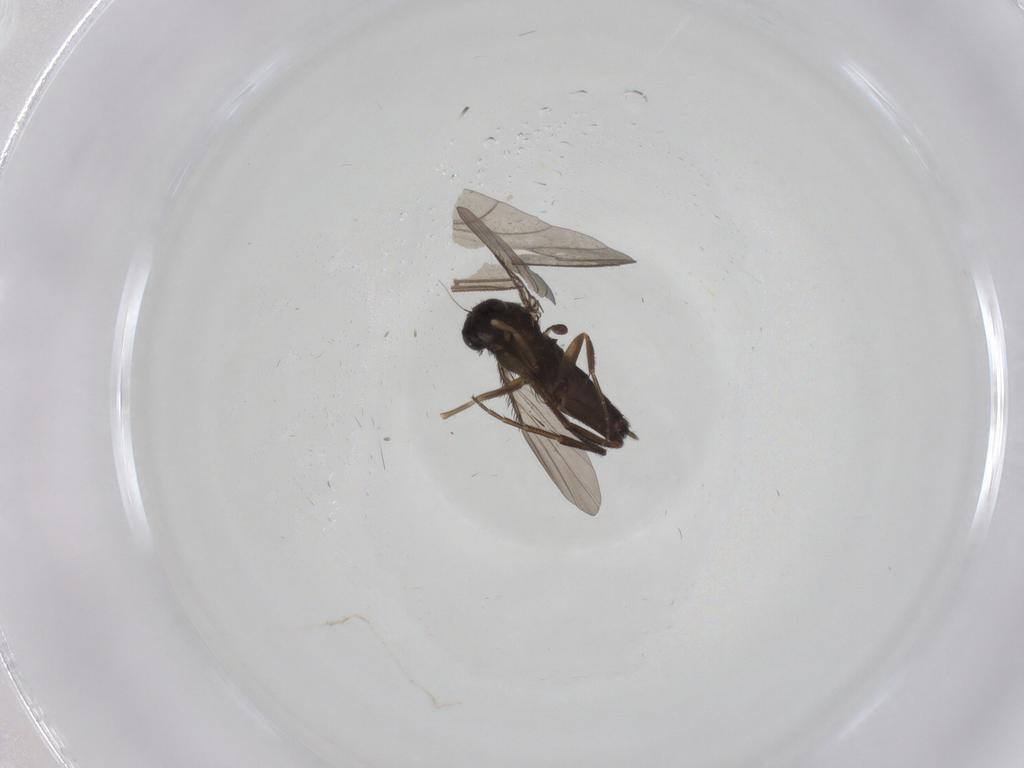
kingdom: Animalia
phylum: Arthropoda
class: Insecta
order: Diptera
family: Phoridae
